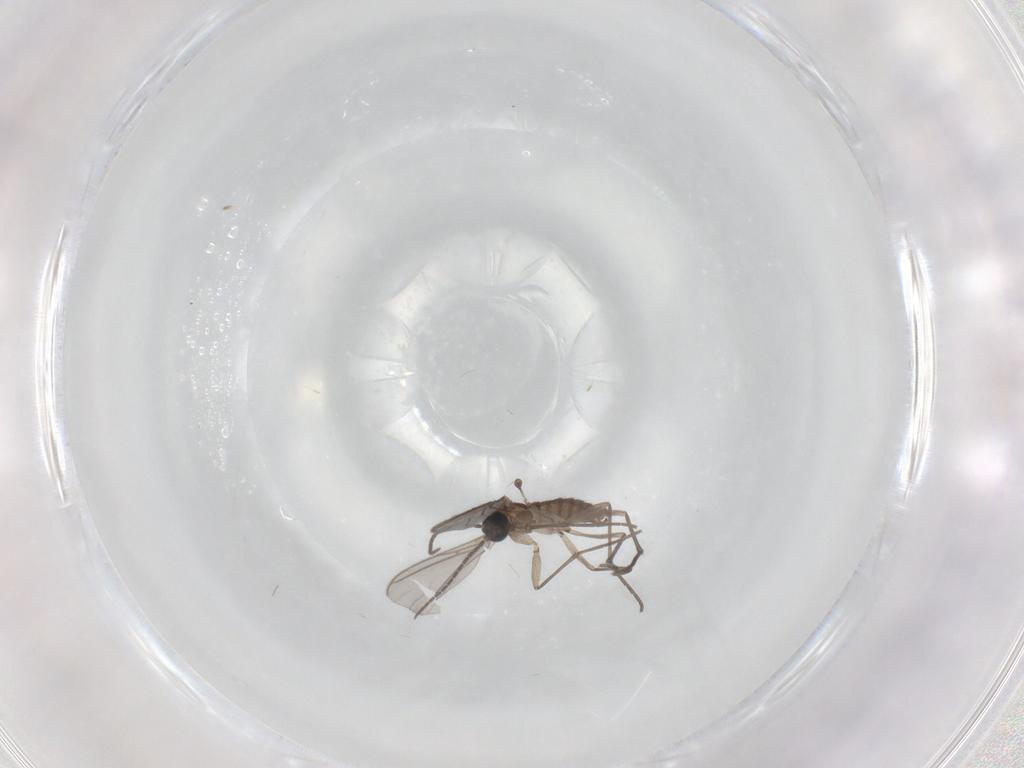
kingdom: Animalia
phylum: Arthropoda
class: Insecta
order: Diptera
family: Sciaridae
